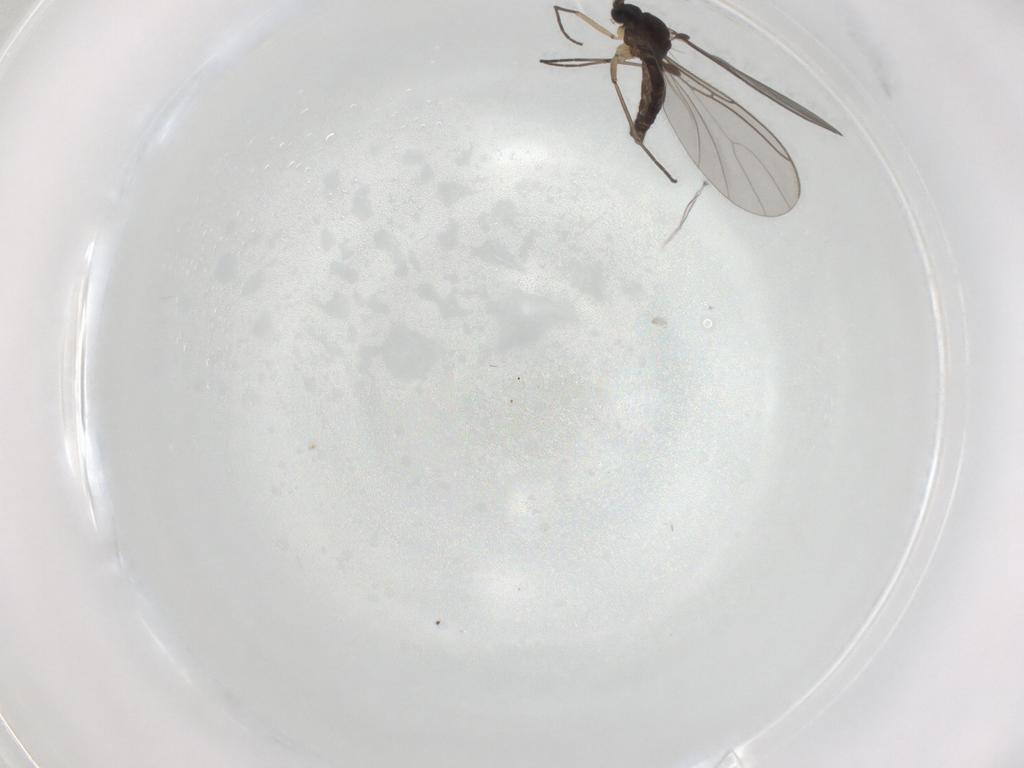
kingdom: Animalia
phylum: Arthropoda
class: Insecta
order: Diptera
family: Sciaridae
